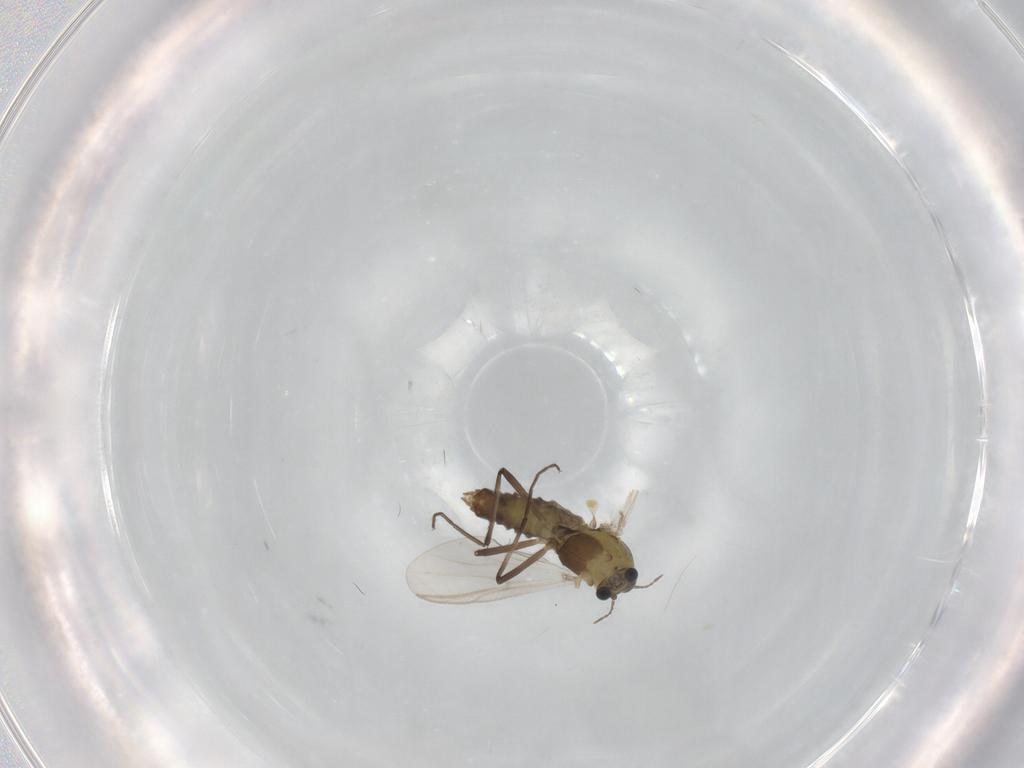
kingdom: Animalia
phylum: Arthropoda
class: Insecta
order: Diptera
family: Chironomidae
